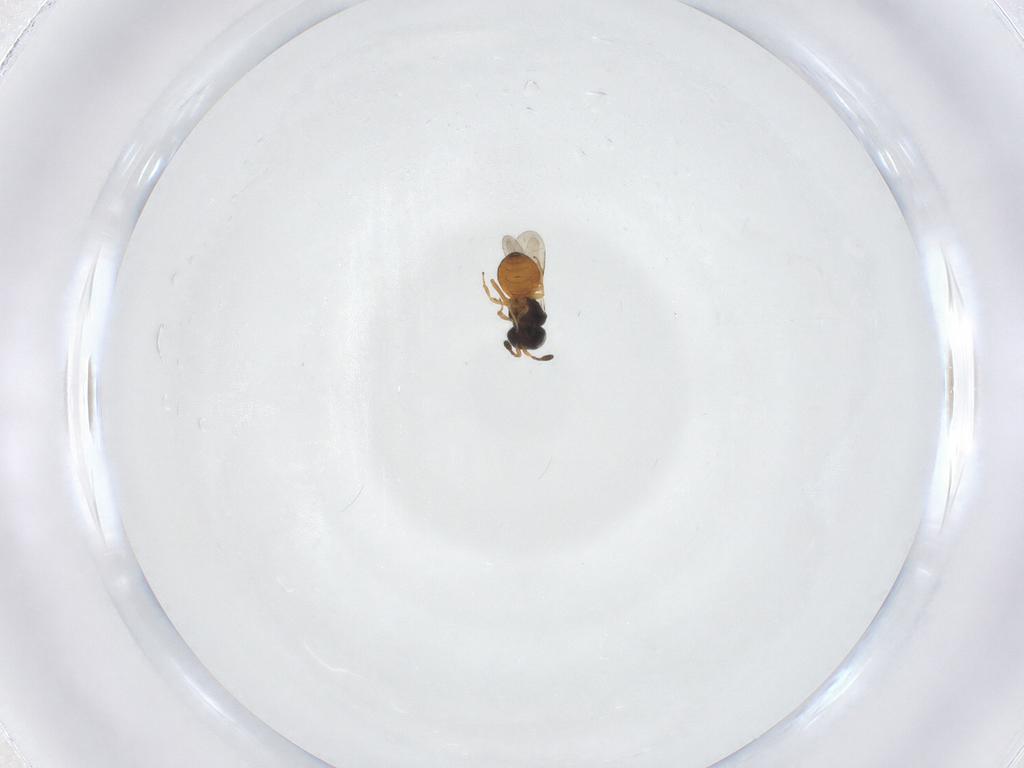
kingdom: Animalia
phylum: Arthropoda
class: Insecta
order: Hymenoptera
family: Scelionidae
